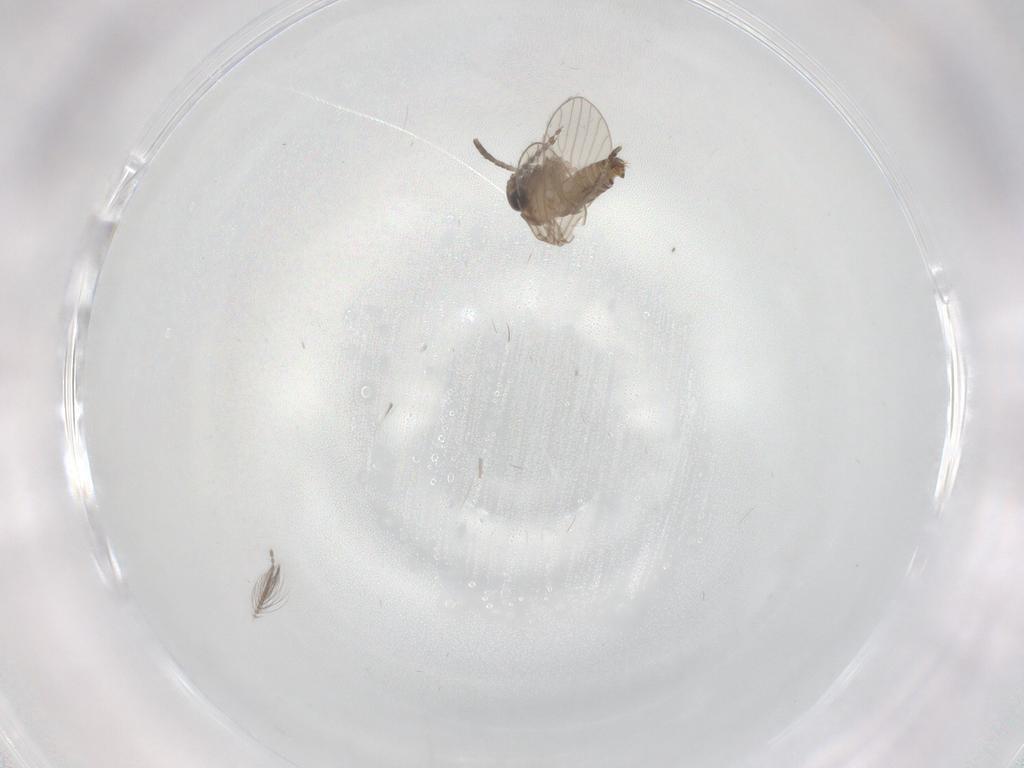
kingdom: Animalia
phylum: Arthropoda
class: Insecta
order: Diptera
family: Ceratopogonidae
